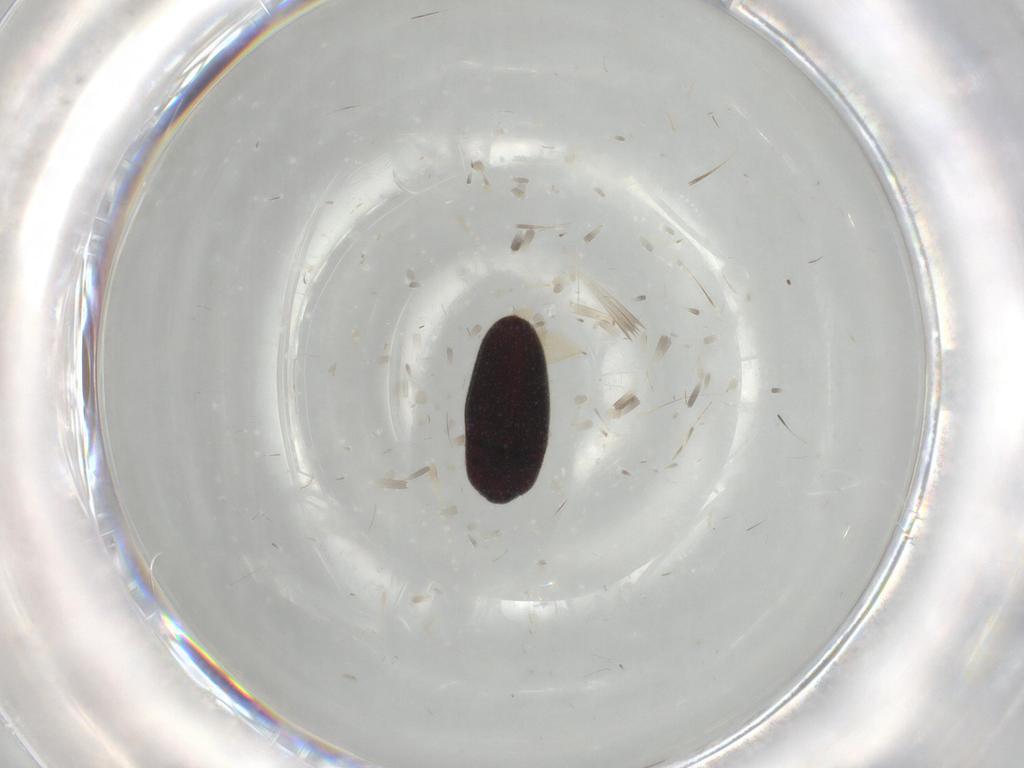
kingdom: Animalia
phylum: Arthropoda
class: Insecta
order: Coleoptera
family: Throscidae
